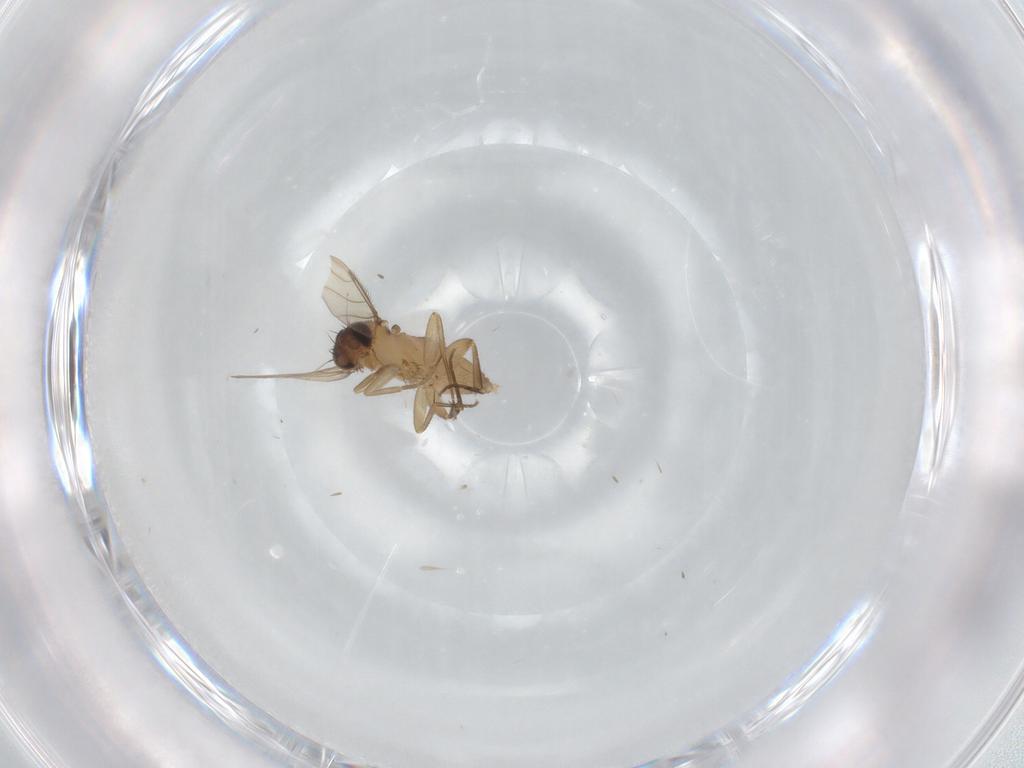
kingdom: Animalia
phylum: Arthropoda
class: Insecta
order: Diptera
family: Phoridae
